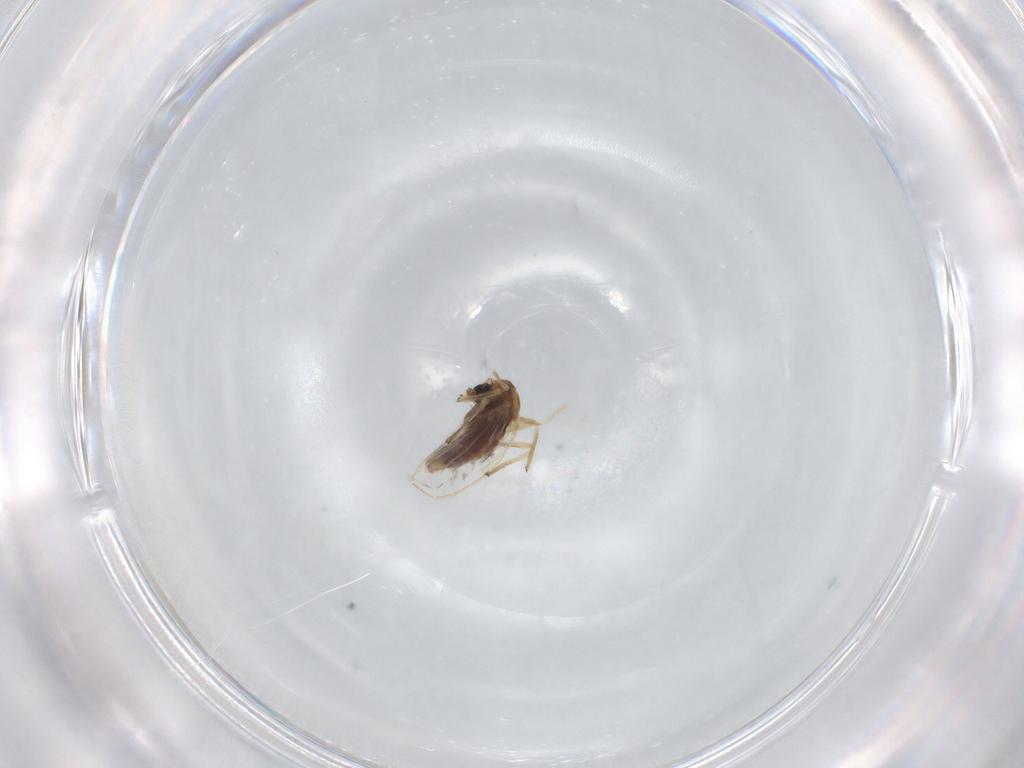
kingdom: Animalia
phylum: Arthropoda
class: Insecta
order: Diptera
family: Chironomidae
